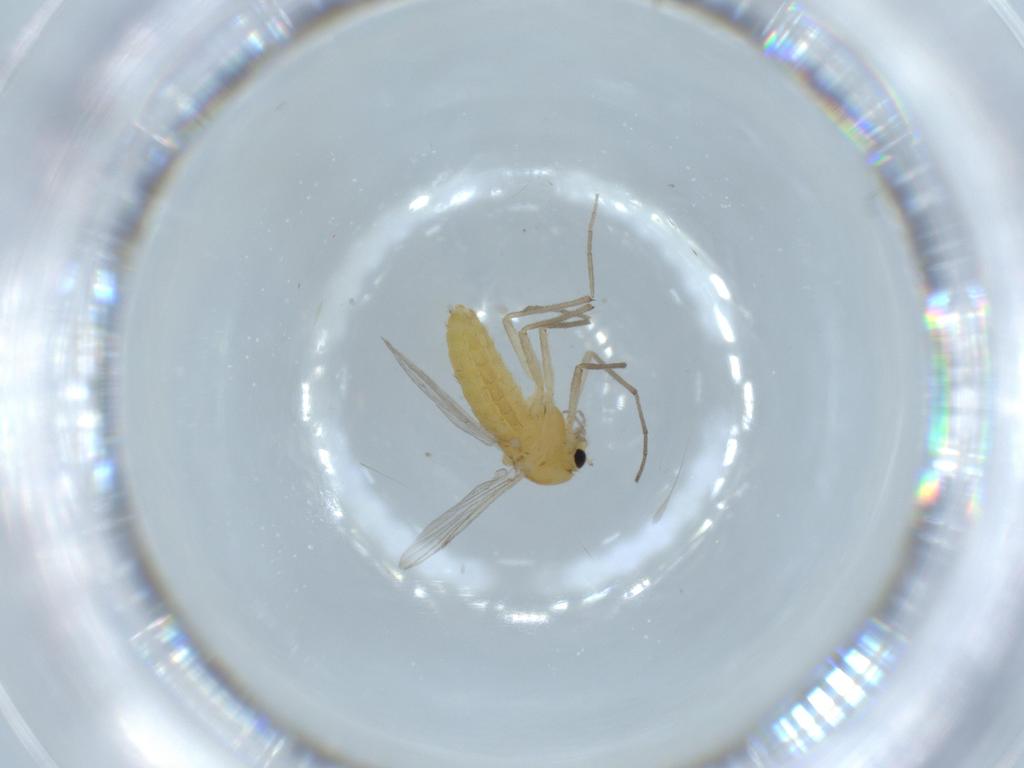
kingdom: Animalia
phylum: Arthropoda
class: Insecta
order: Diptera
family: Chironomidae
